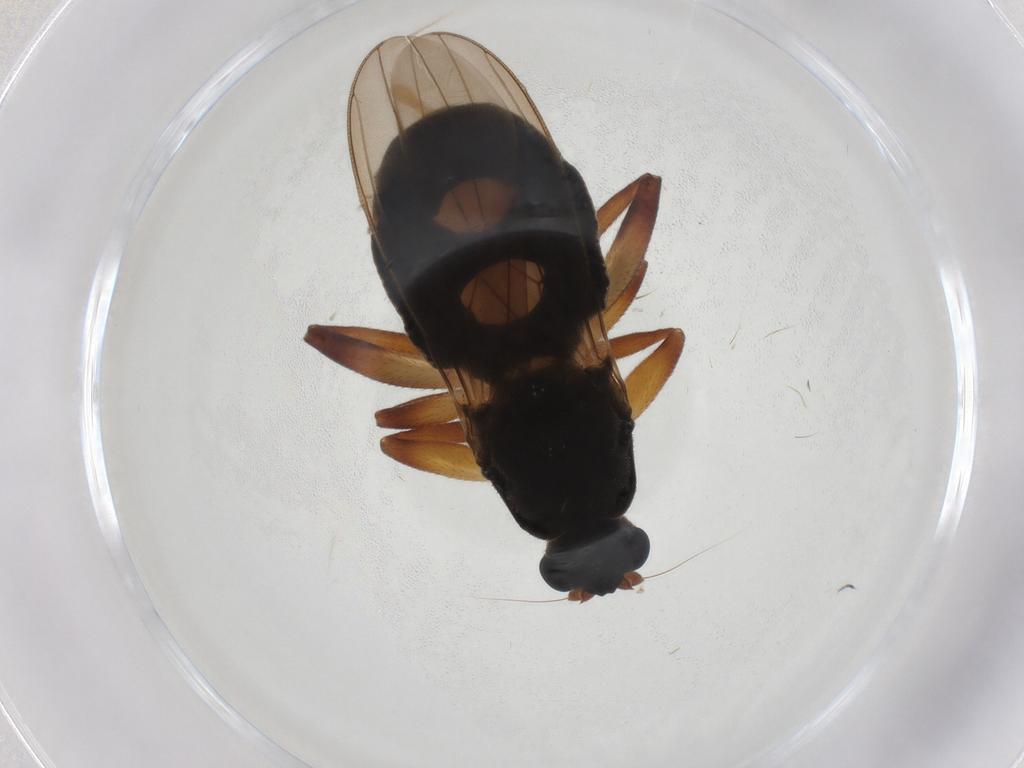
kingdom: Animalia
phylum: Arthropoda
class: Insecta
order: Diptera
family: Sphaeroceridae
